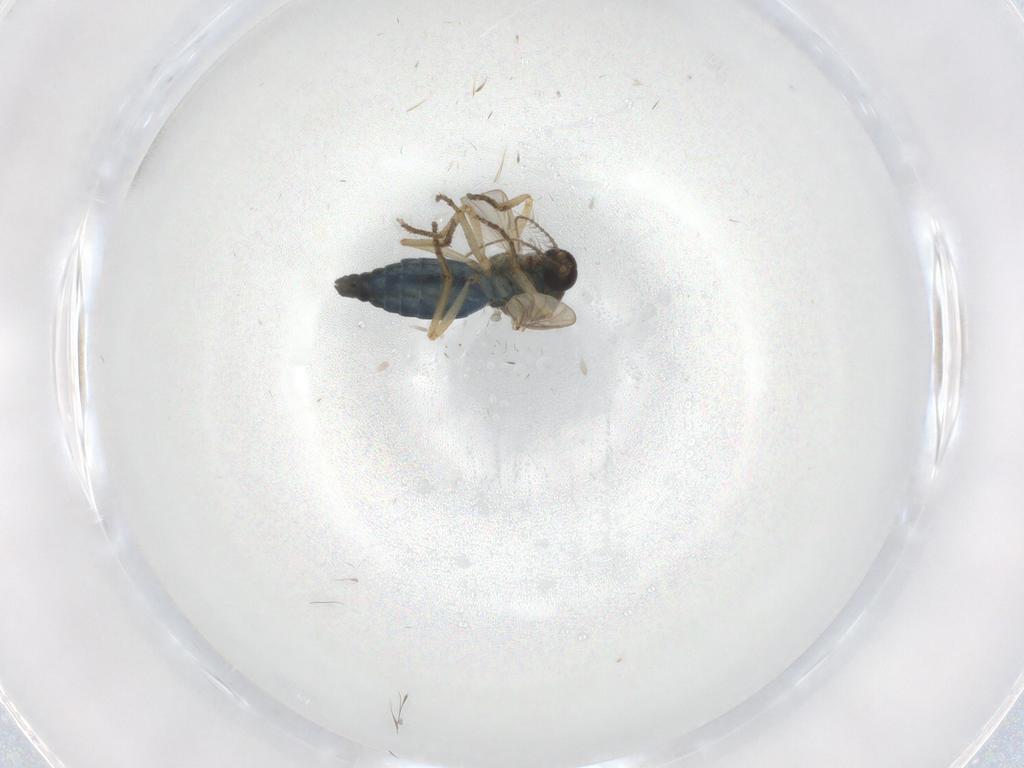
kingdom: Animalia
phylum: Arthropoda
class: Insecta
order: Diptera
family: Ceratopogonidae
